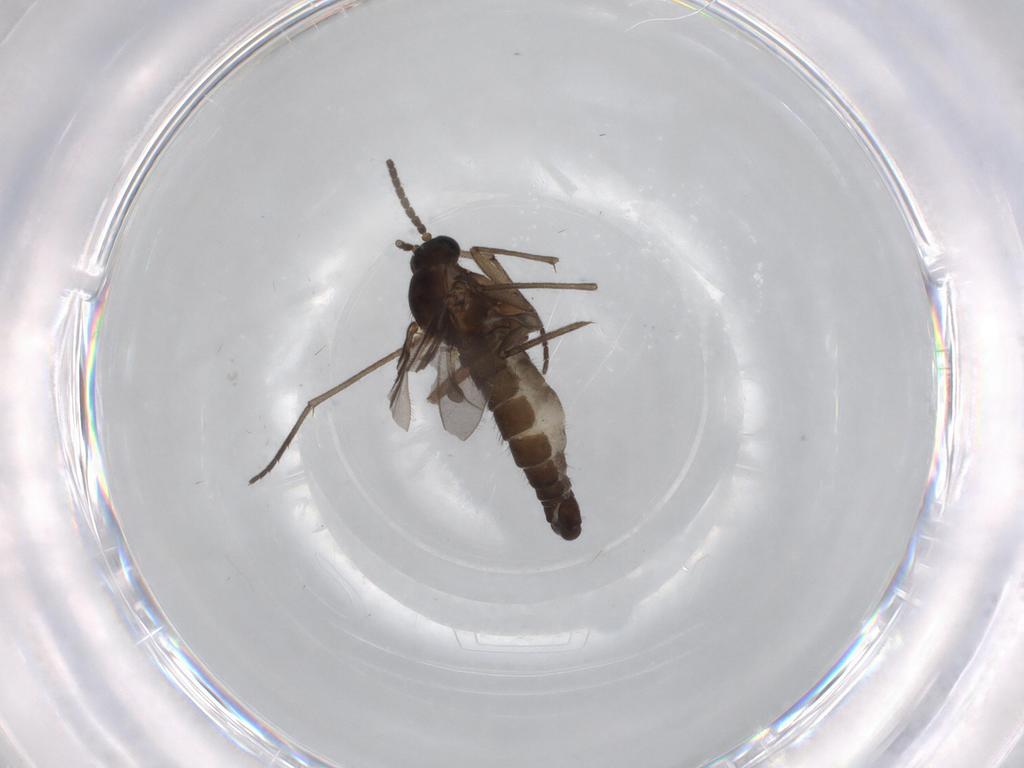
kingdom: Animalia
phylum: Arthropoda
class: Insecta
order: Diptera
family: Sciaridae
